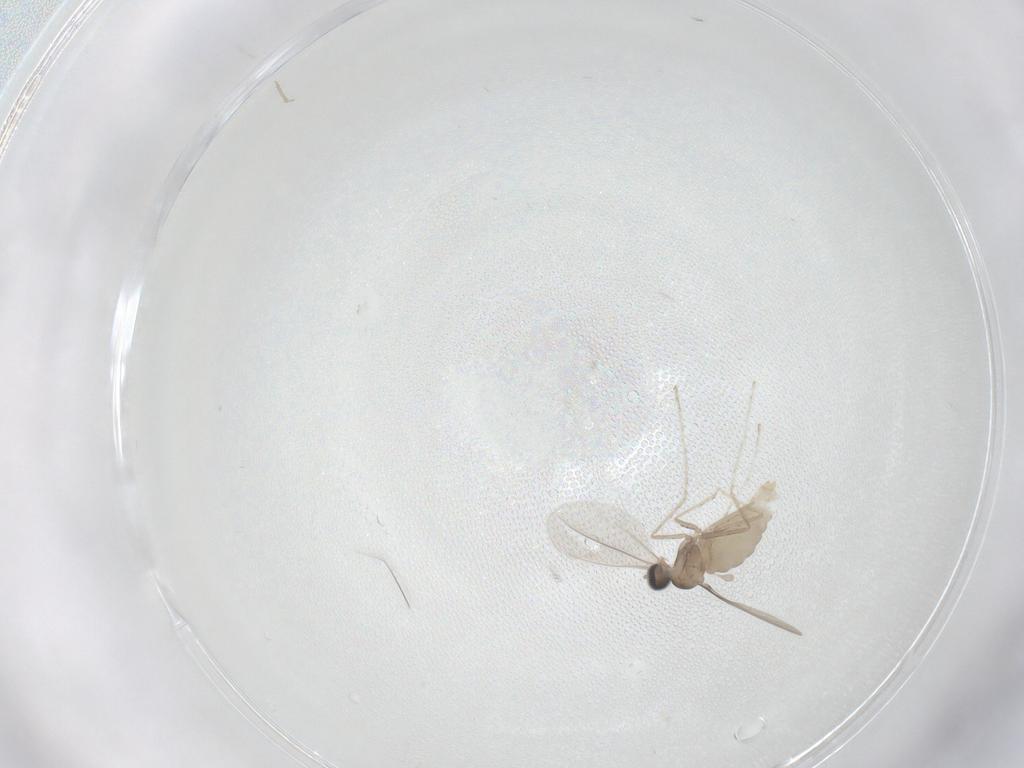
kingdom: Animalia
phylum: Arthropoda
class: Insecta
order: Diptera
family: Cecidomyiidae
